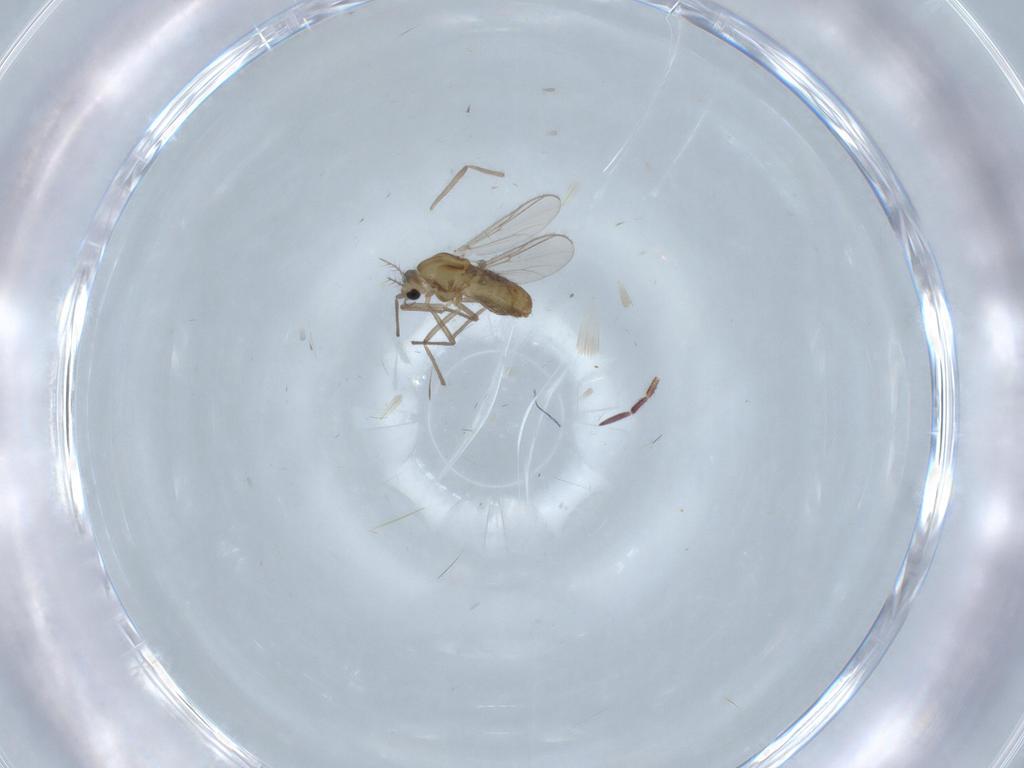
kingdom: Animalia
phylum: Arthropoda
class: Insecta
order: Diptera
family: Chironomidae
